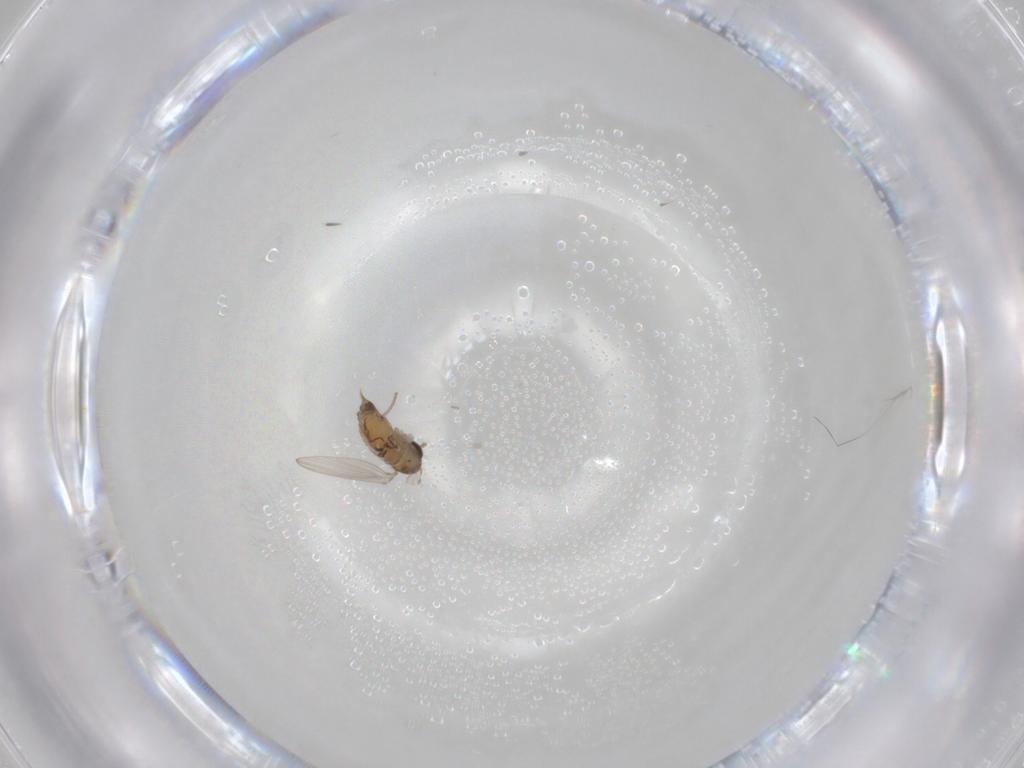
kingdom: Animalia
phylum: Arthropoda
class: Insecta
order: Diptera
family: Psychodidae
